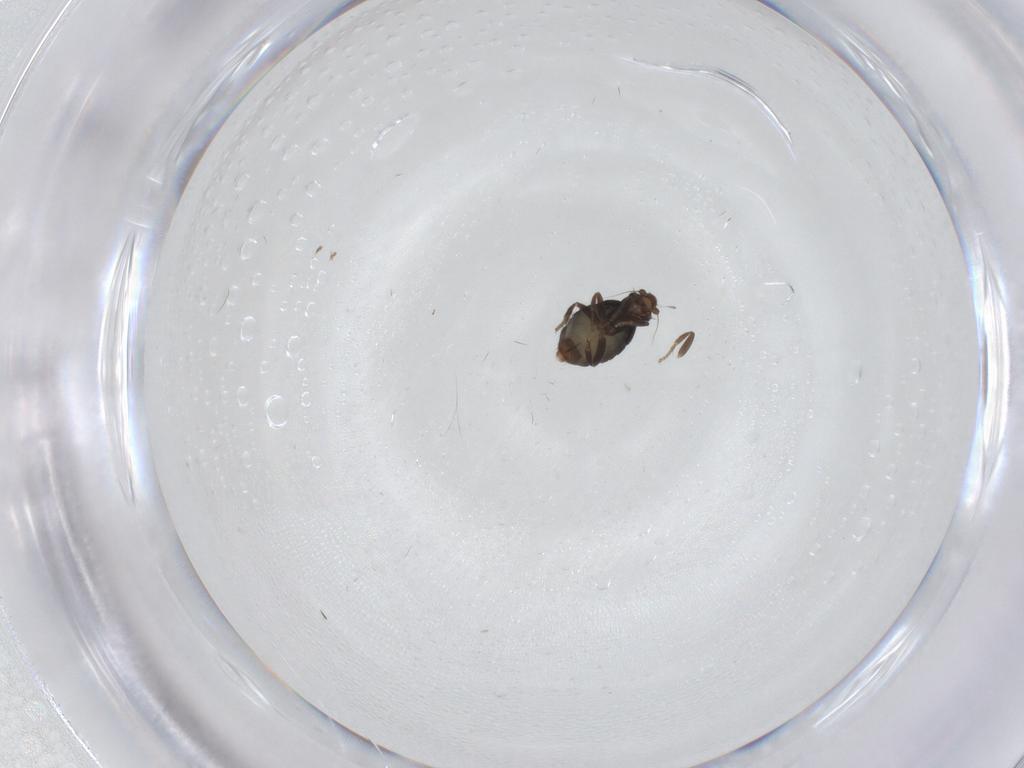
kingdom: Animalia
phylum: Arthropoda
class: Insecta
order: Diptera
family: Phoridae
